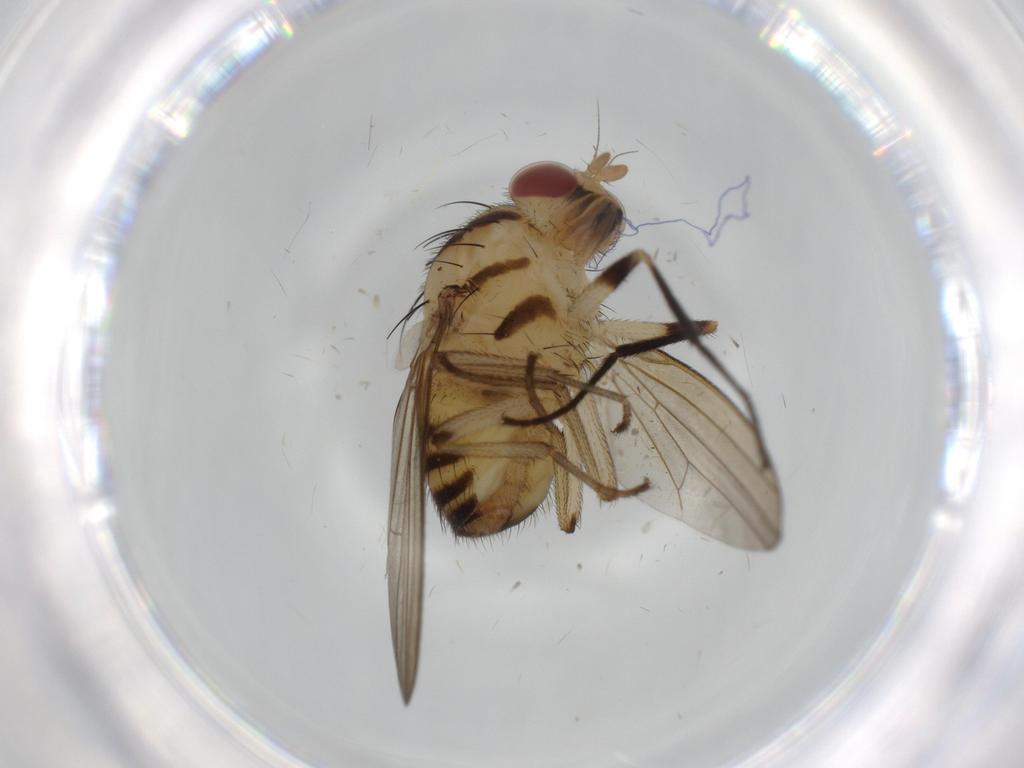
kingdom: Animalia
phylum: Arthropoda
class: Insecta
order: Diptera
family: Lauxaniidae
